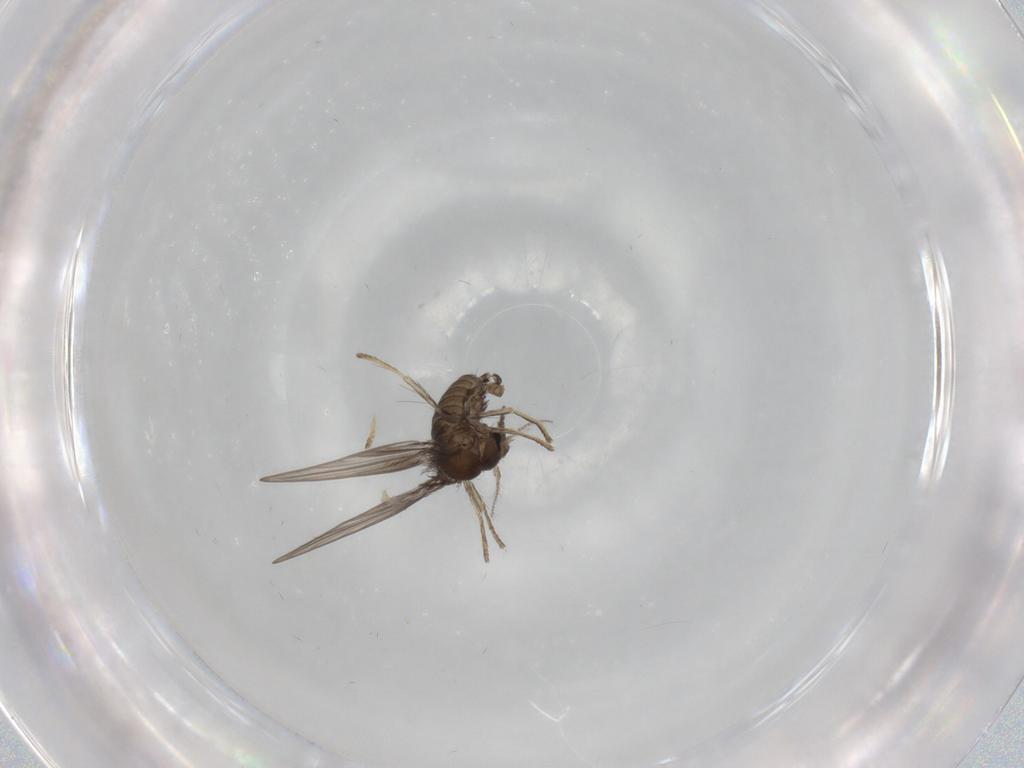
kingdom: Animalia
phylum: Arthropoda
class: Insecta
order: Diptera
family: Psychodidae
